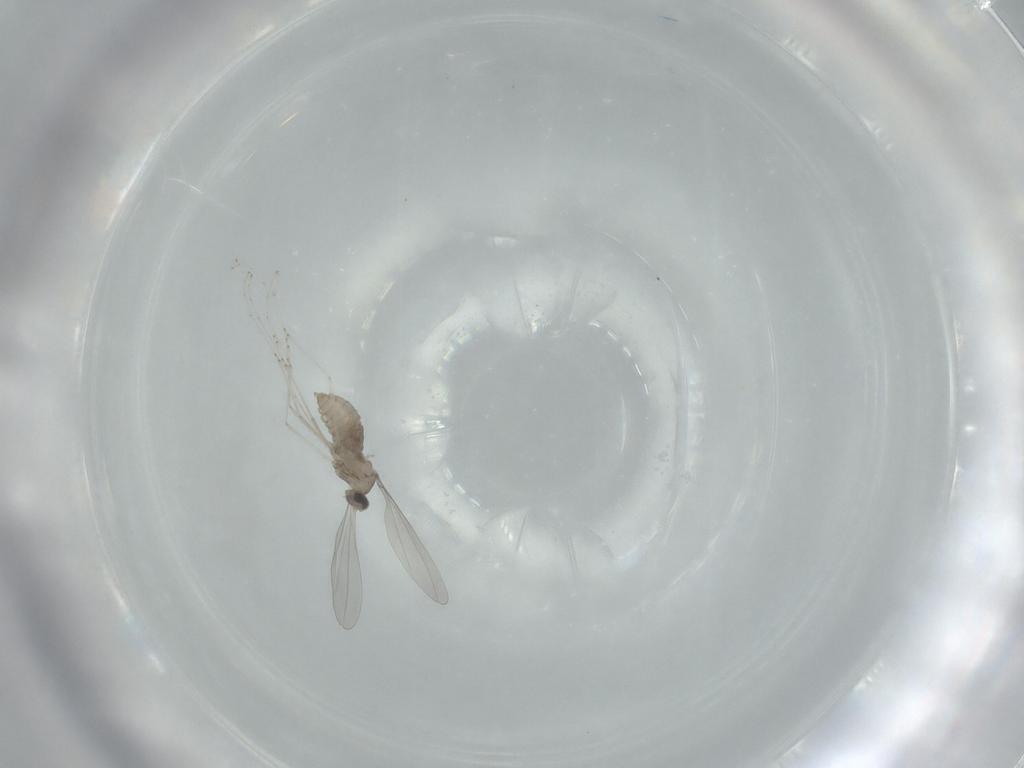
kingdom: Animalia
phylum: Arthropoda
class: Insecta
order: Diptera
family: Cecidomyiidae
